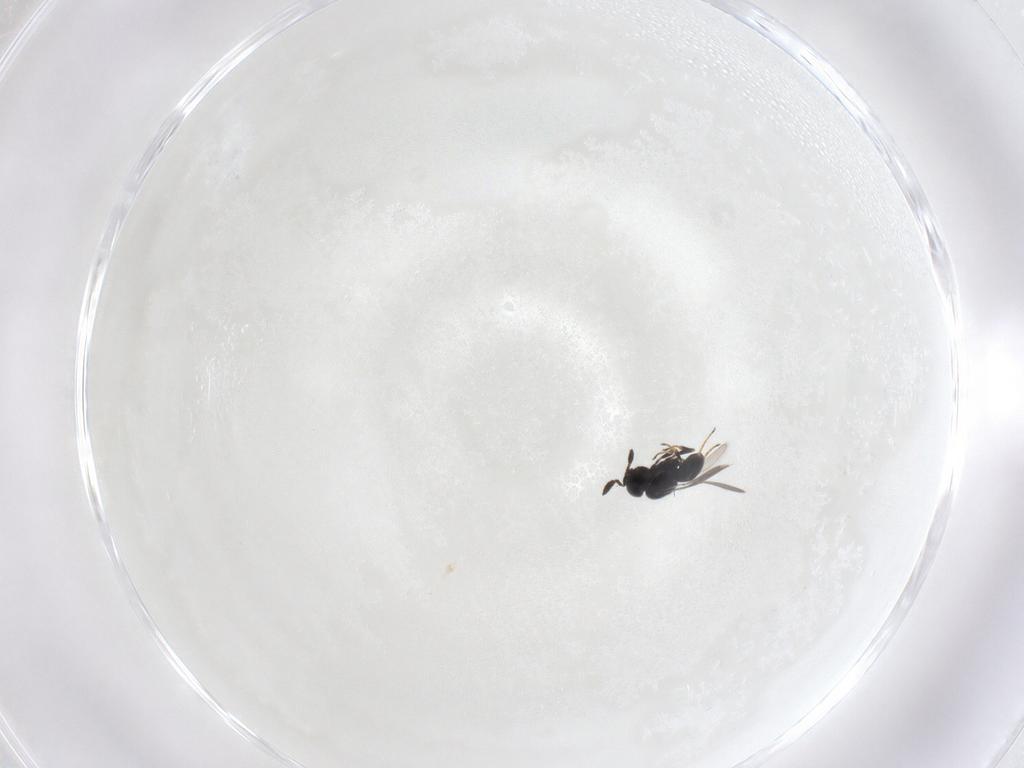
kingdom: Animalia
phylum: Arthropoda
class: Insecta
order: Hymenoptera
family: Scelionidae
